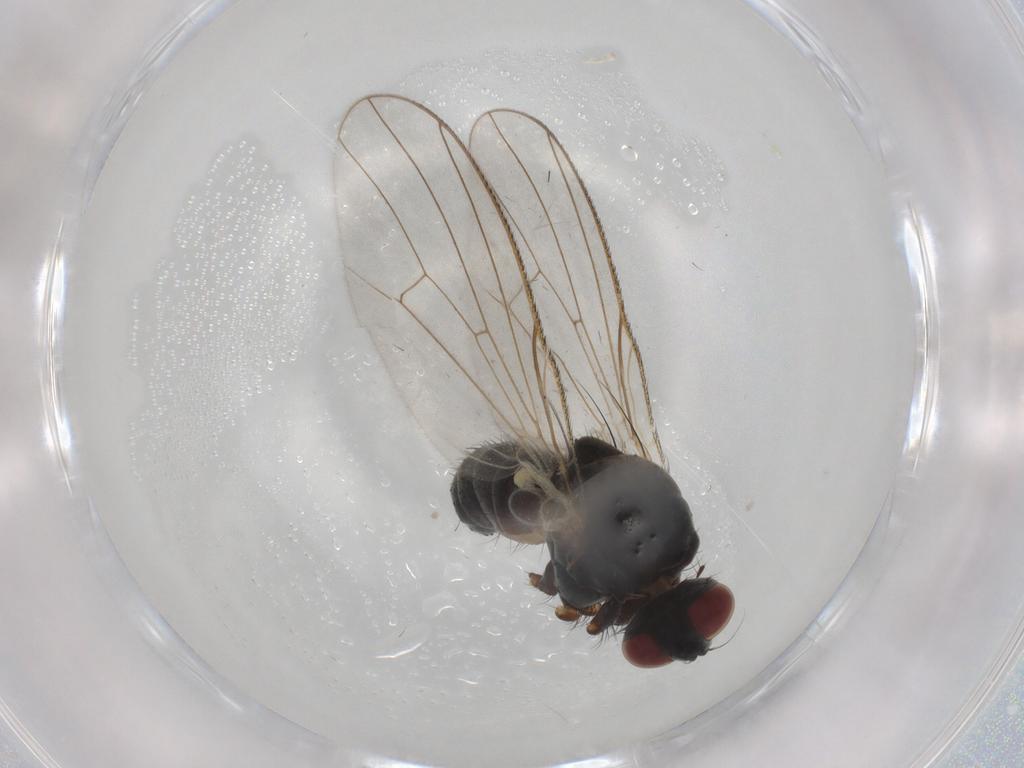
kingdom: Animalia
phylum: Arthropoda
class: Insecta
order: Diptera
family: Muscidae
